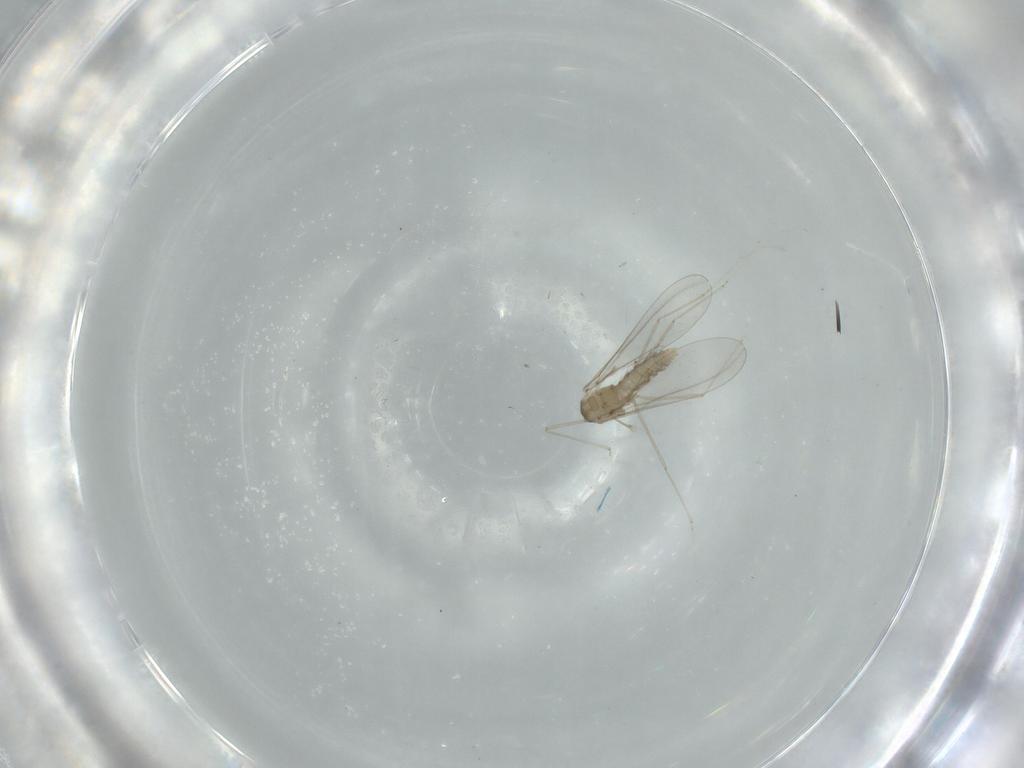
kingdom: Animalia
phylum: Arthropoda
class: Insecta
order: Diptera
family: Cecidomyiidae
